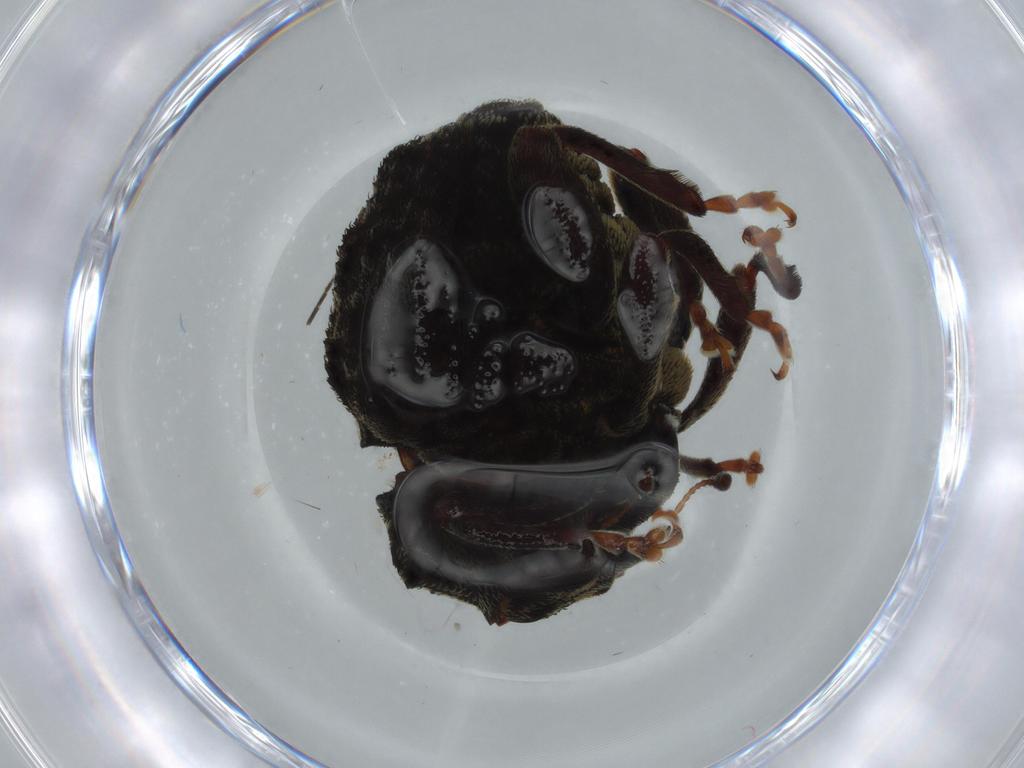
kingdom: Animalia
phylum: Arthropoda
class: Insecta
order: Coleoptera
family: Curculionidae
